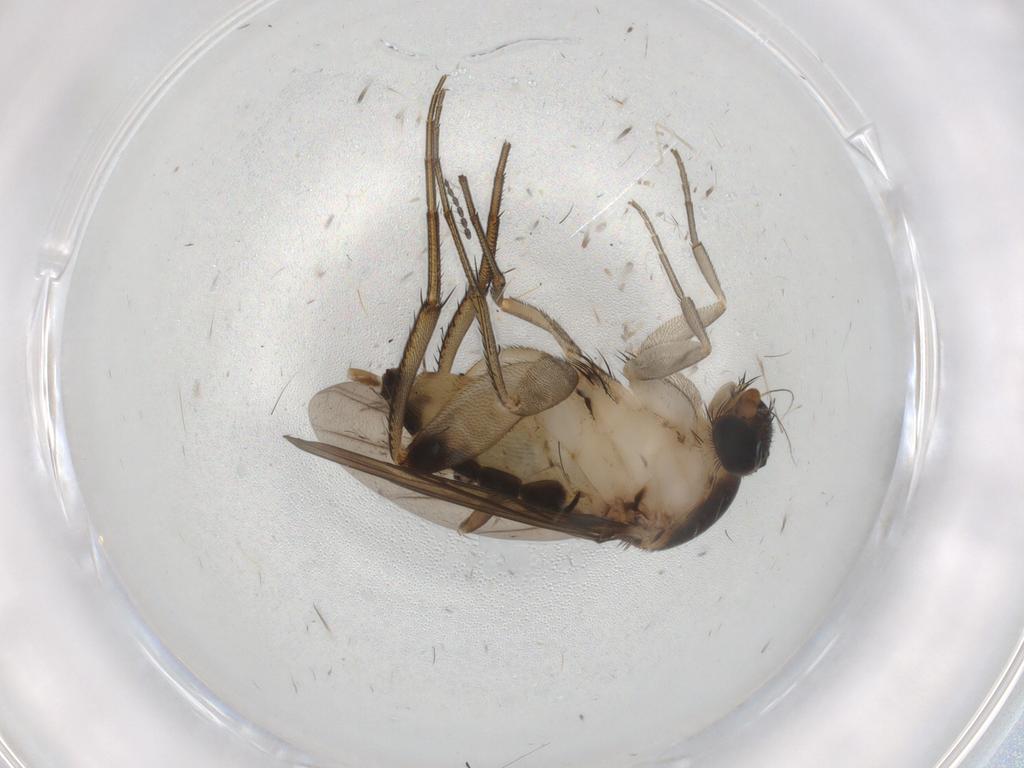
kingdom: Animalia
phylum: Arthropoda
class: Insecta
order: Diptera
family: Phoridae
